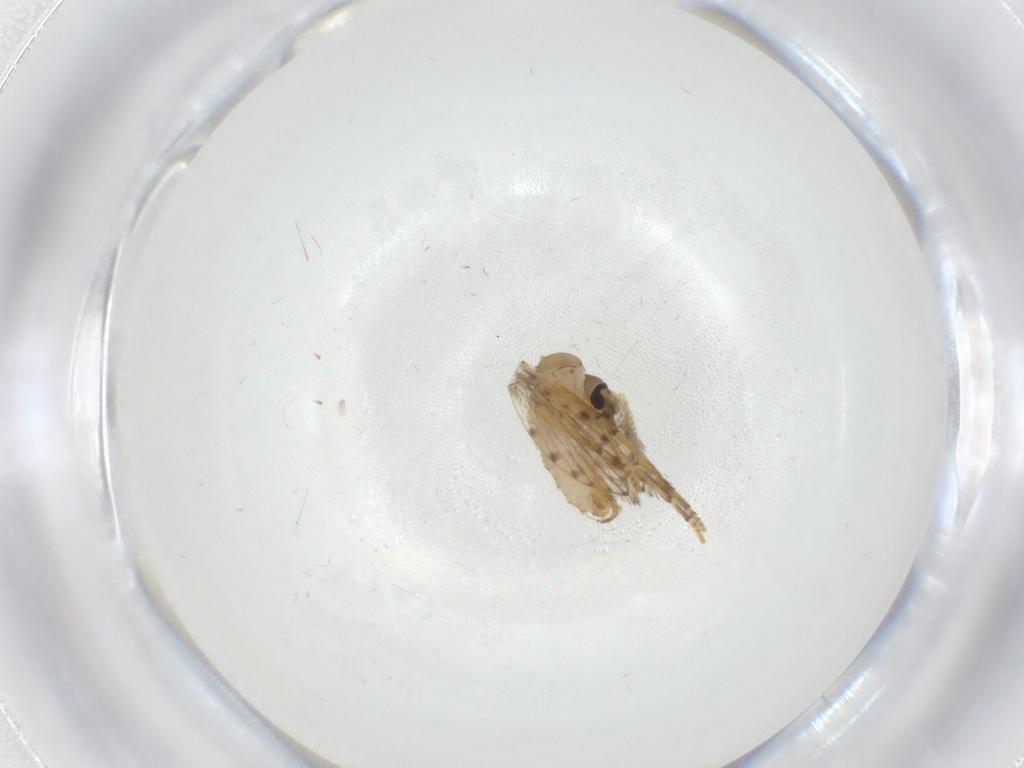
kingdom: Animalia
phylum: Arthropoda
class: Insecta
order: Diptera
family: Psychodidae
